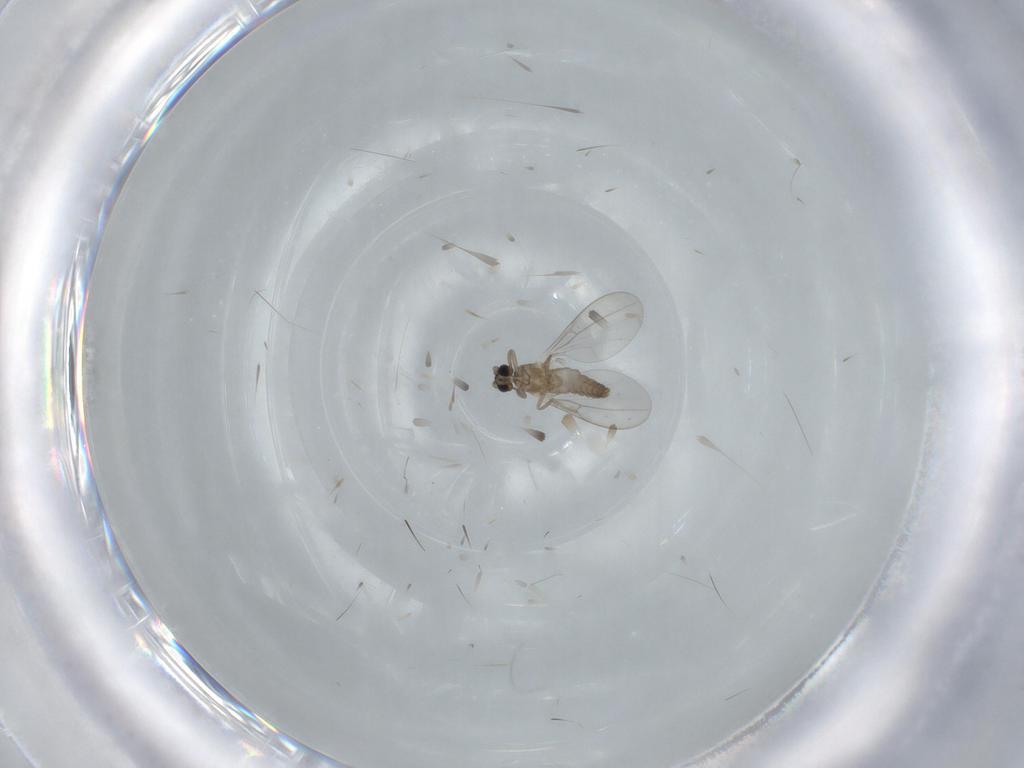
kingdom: Animalia
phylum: Arthropoda
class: Insecta
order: Diptera
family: Cecidomyiidae
